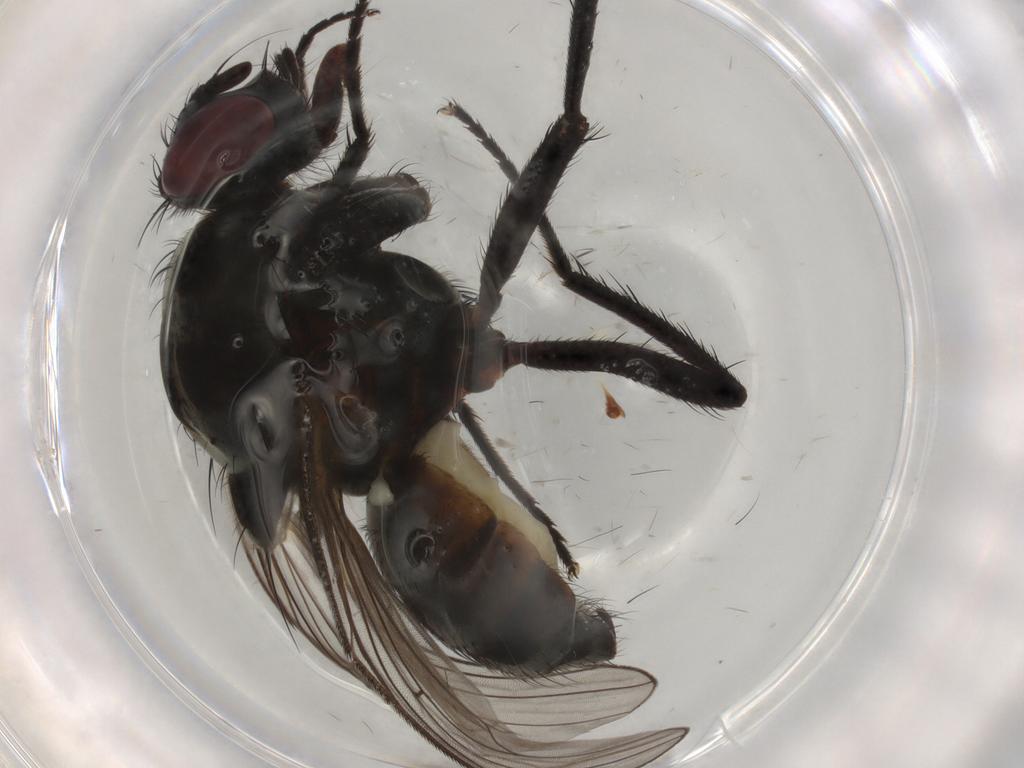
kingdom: Animalia
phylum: Arthropoda
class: Insecta
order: Diptera
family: Anthomyiidae
